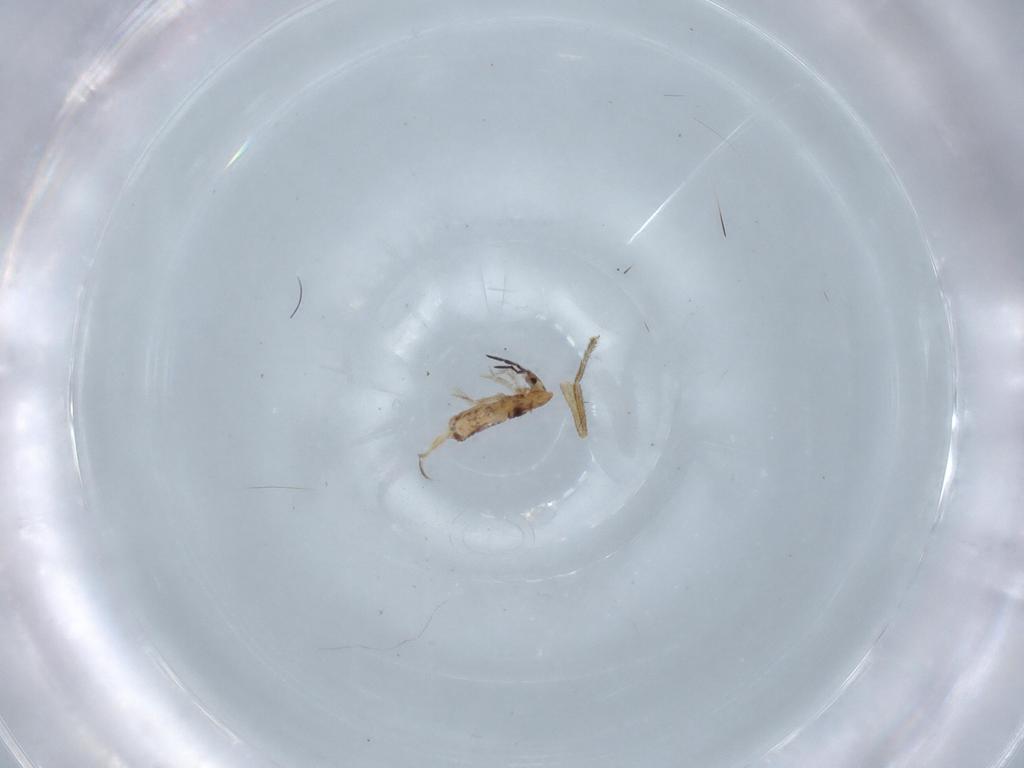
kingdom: Animalia
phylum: Arthropoda
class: Collembola
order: Entomobryomorpha
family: Entomobryidae
